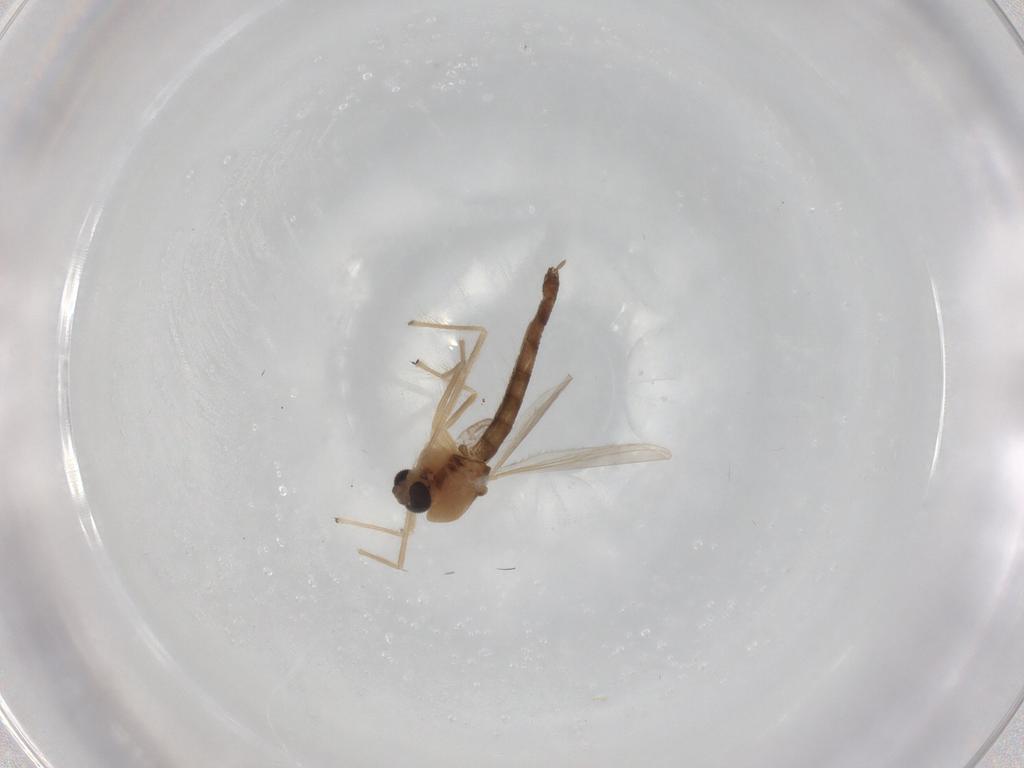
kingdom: Animalia
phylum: Arthropoda
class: Insecta
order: Diptera
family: Chironomidae
